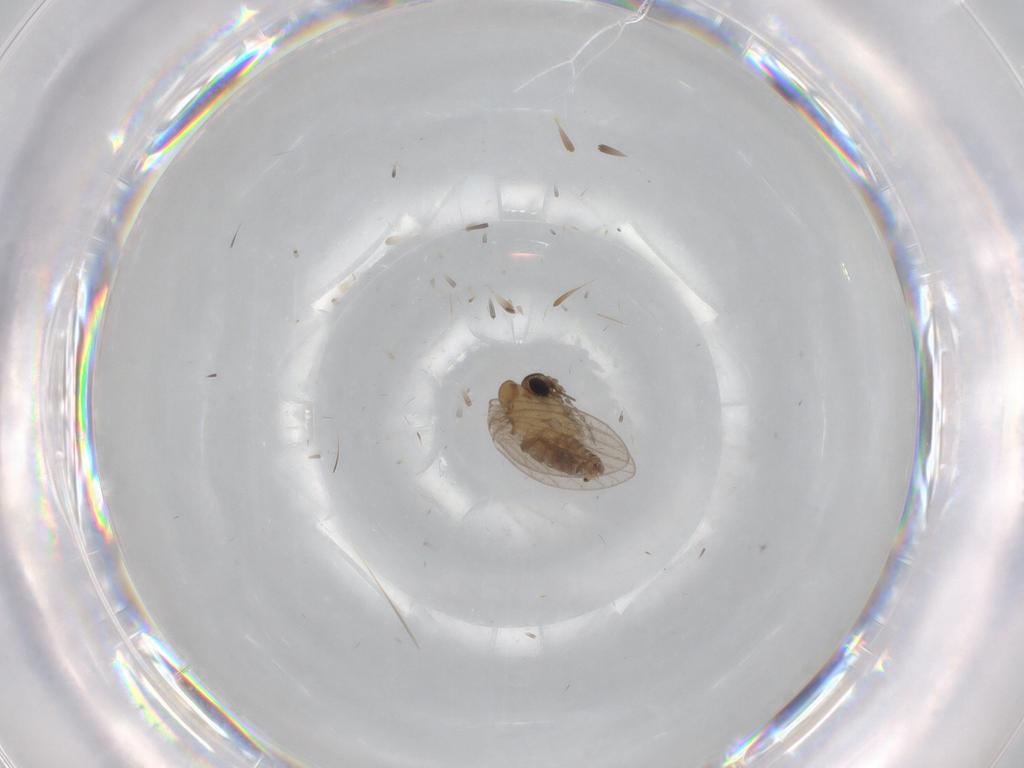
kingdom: Animalia
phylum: Arthropoda
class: Insecta
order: Diptera
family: Chironomidae
